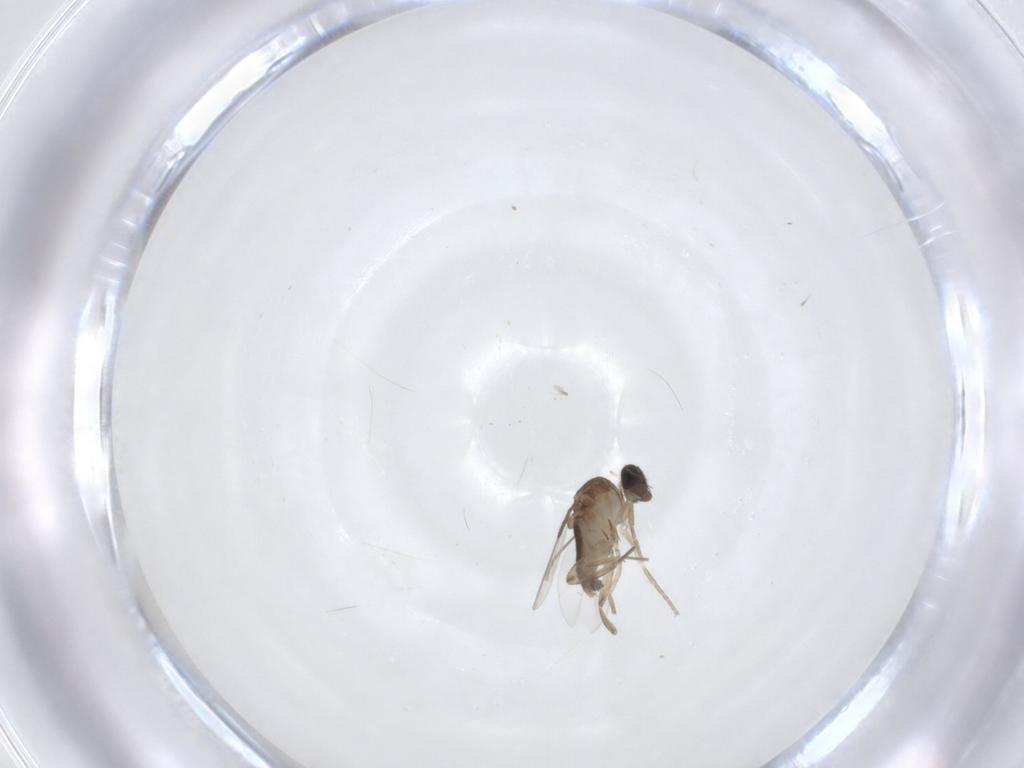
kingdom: Animalia
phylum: Arthropoda
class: Insecta
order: Diptera
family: Phoridae
